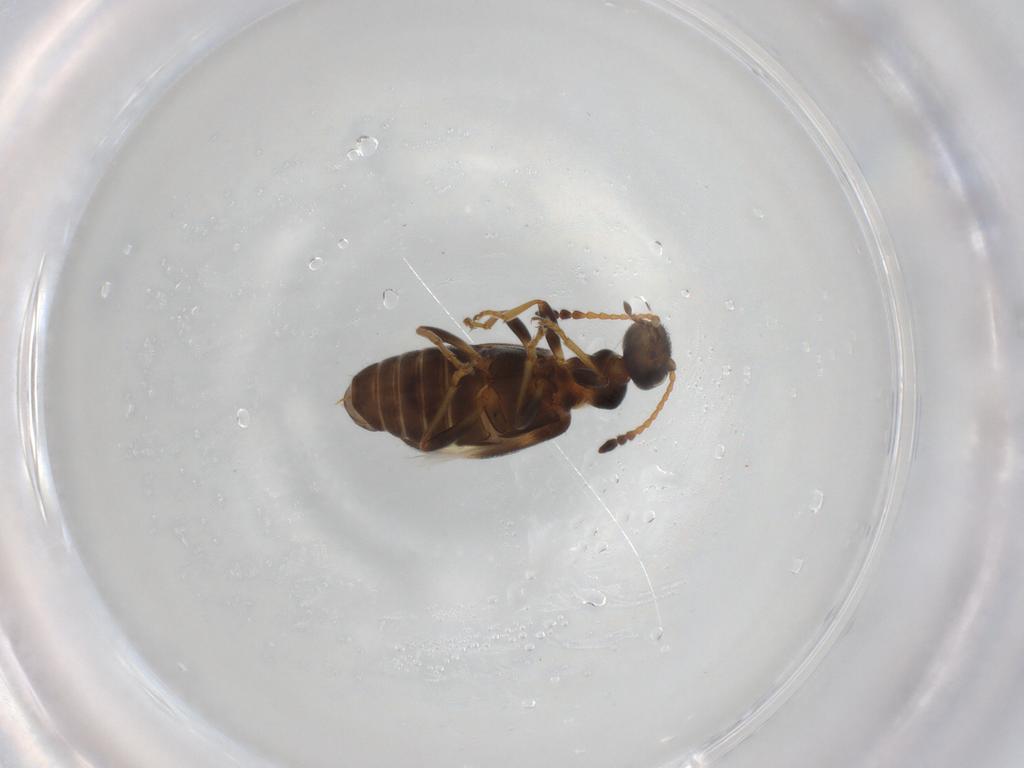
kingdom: Animalia
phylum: Arthropoda
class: Insecta
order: Coleoptera
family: Anthicidae
